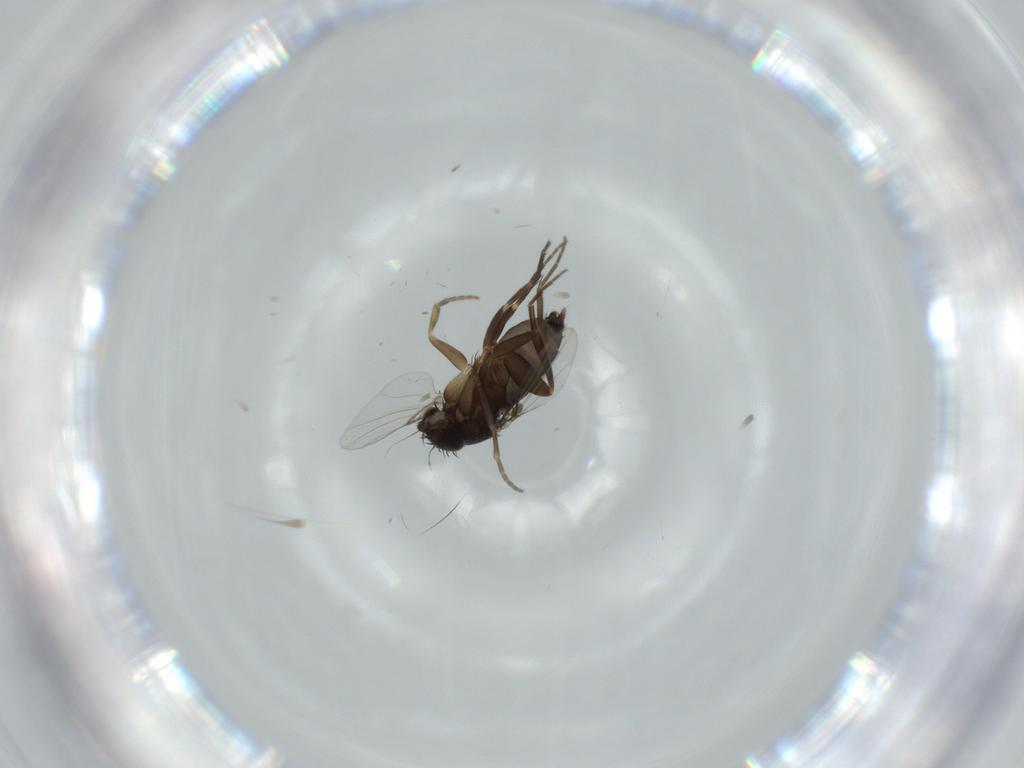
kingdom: Animalia
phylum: Arthropoda
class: Insecta
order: Diptera
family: Phoridae
